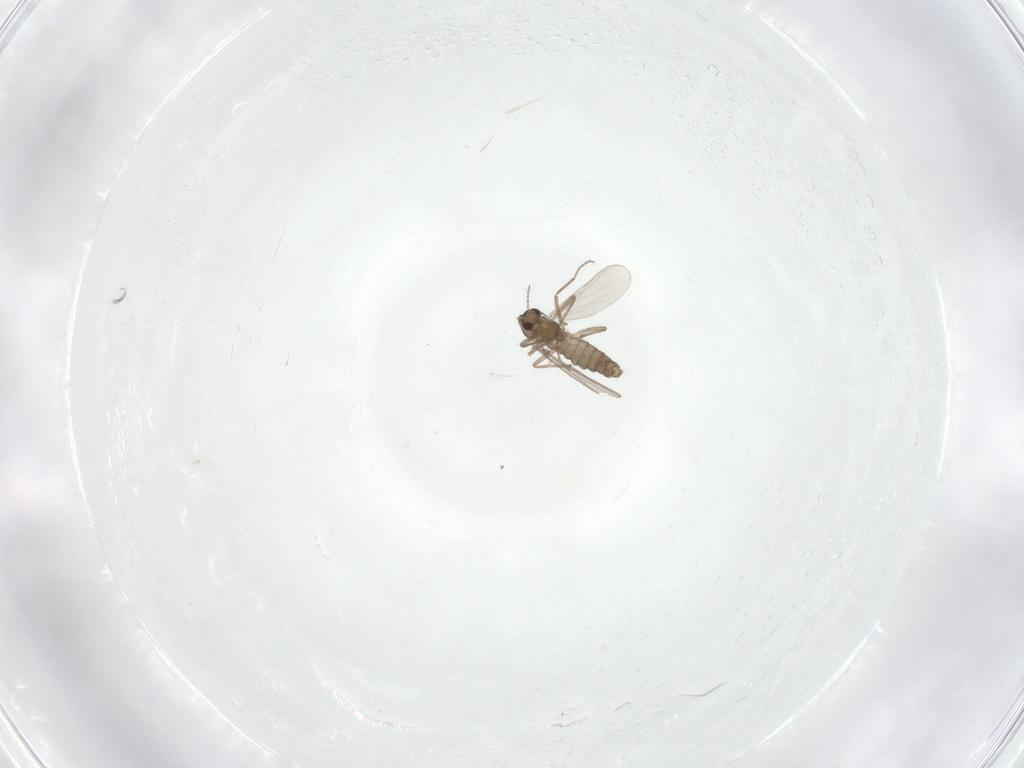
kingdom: Animalia
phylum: Arthropoda
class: Insecta
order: Diptera
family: Chironomidae
